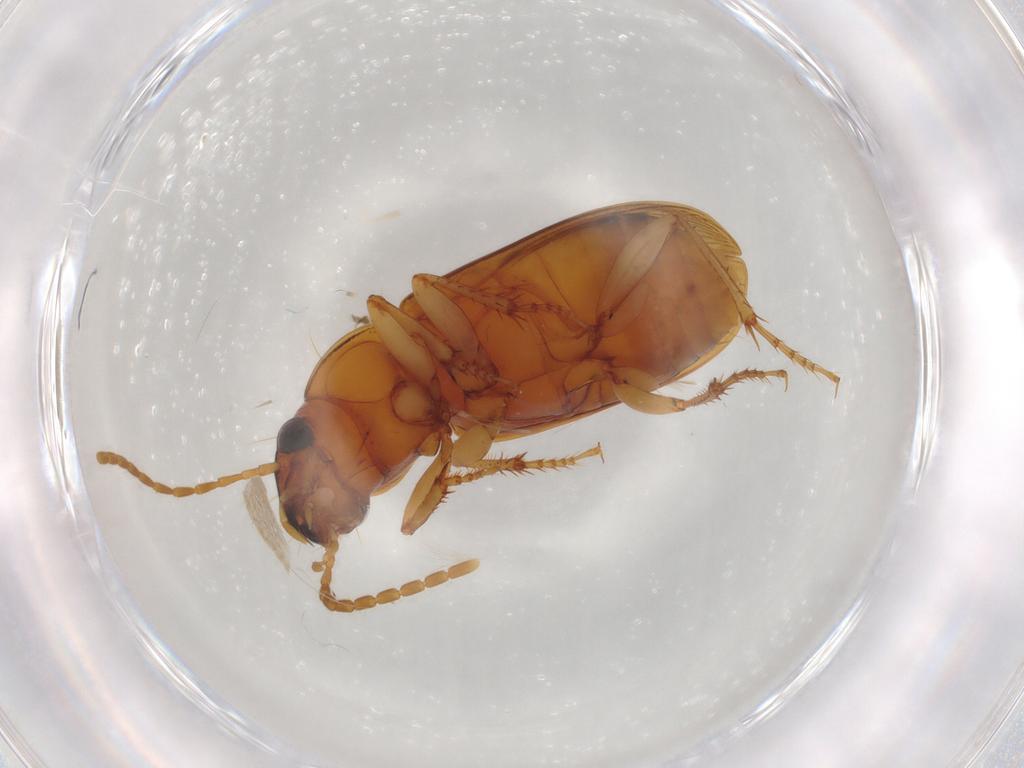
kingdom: Animalia
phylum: Arthropoda
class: Insecta
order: Coleoptera
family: Carabidae
